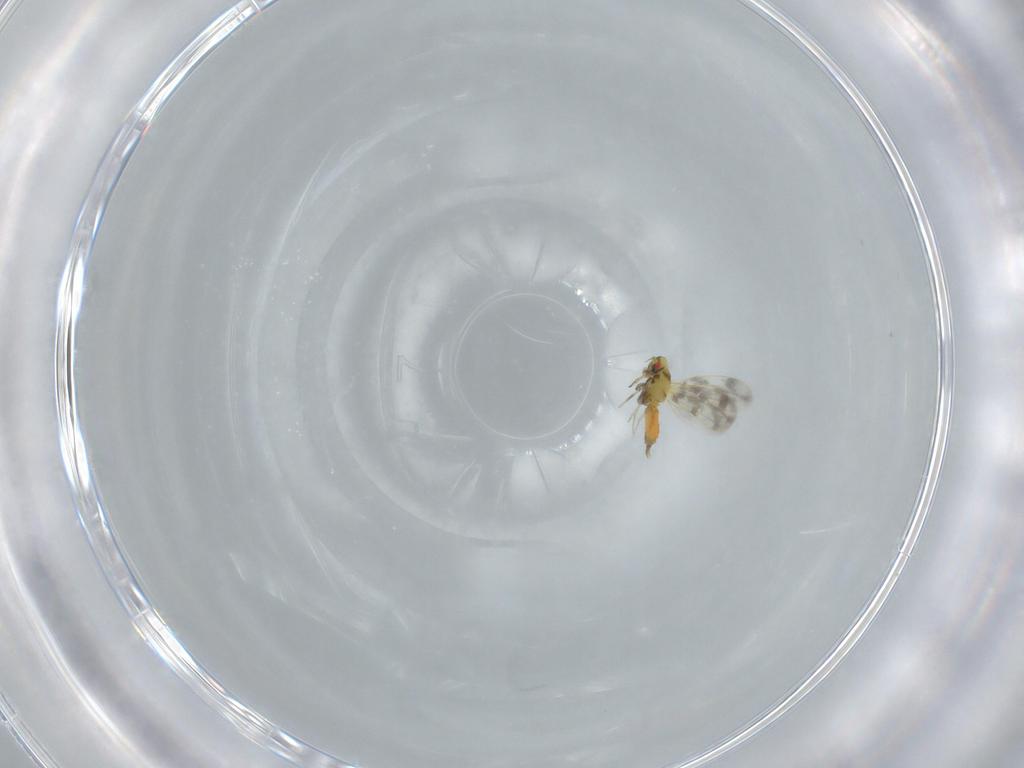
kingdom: Animalia
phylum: Arthropoda
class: Insecta
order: Hemiptera
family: Aleyrodidae
